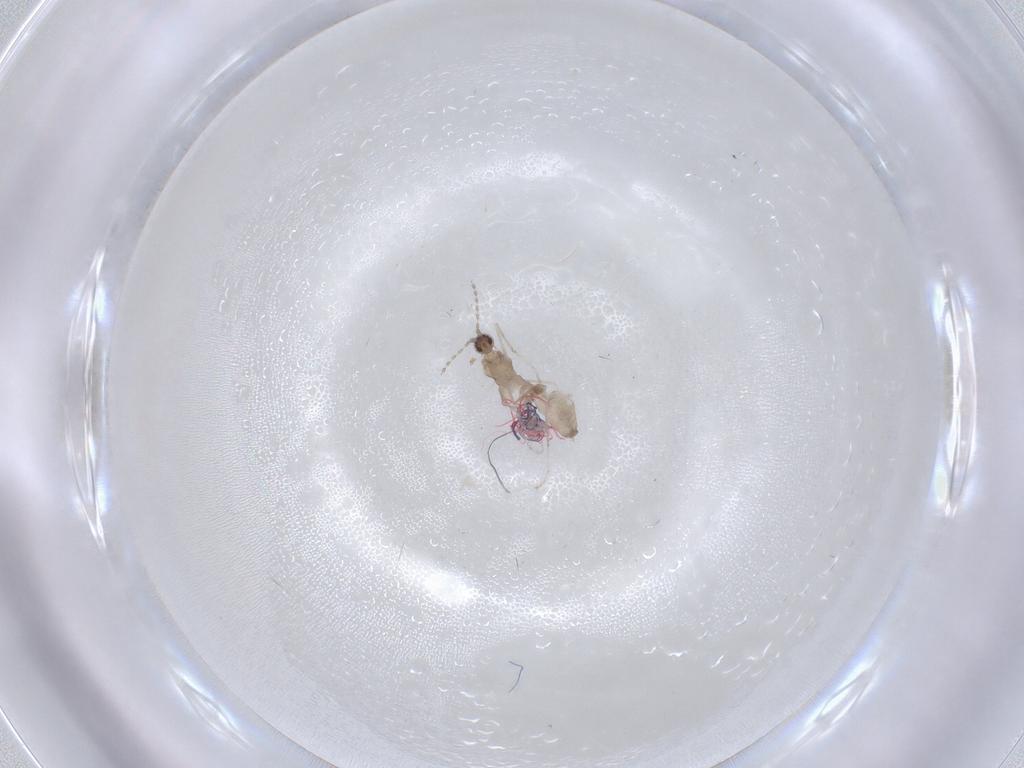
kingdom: Animalia
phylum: Arthropoda
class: Insecta
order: Diptera
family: Cecidomyiidae
